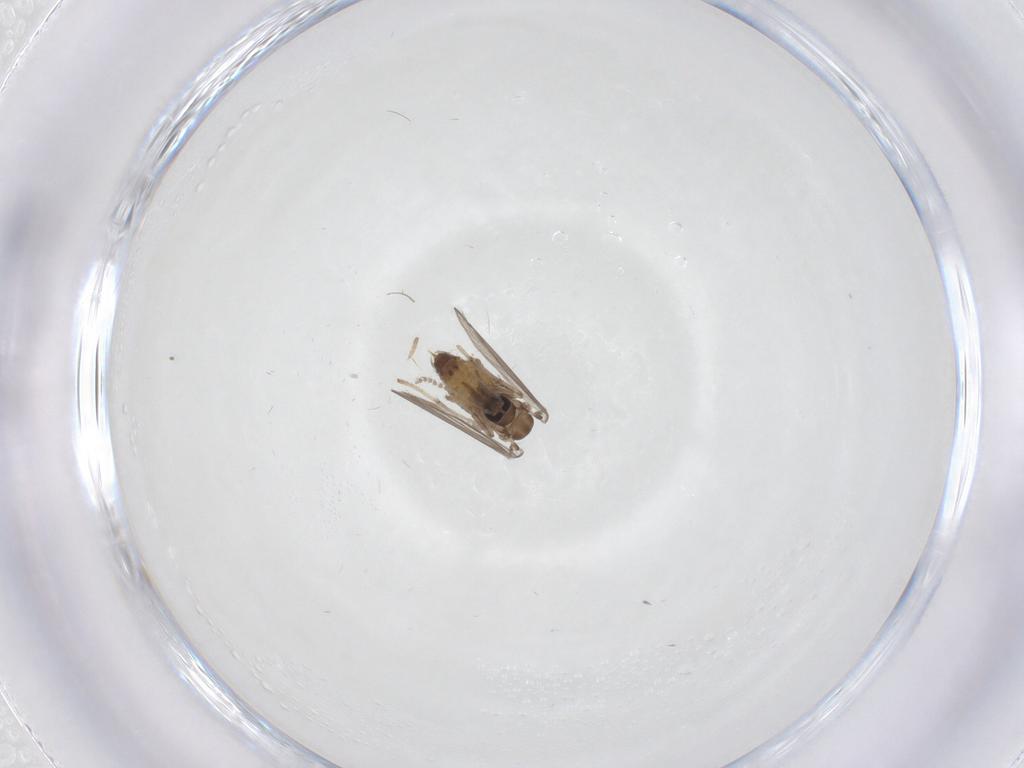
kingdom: Animalia
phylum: Arthropoda
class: Insecta
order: Diptera
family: Psychodidae
